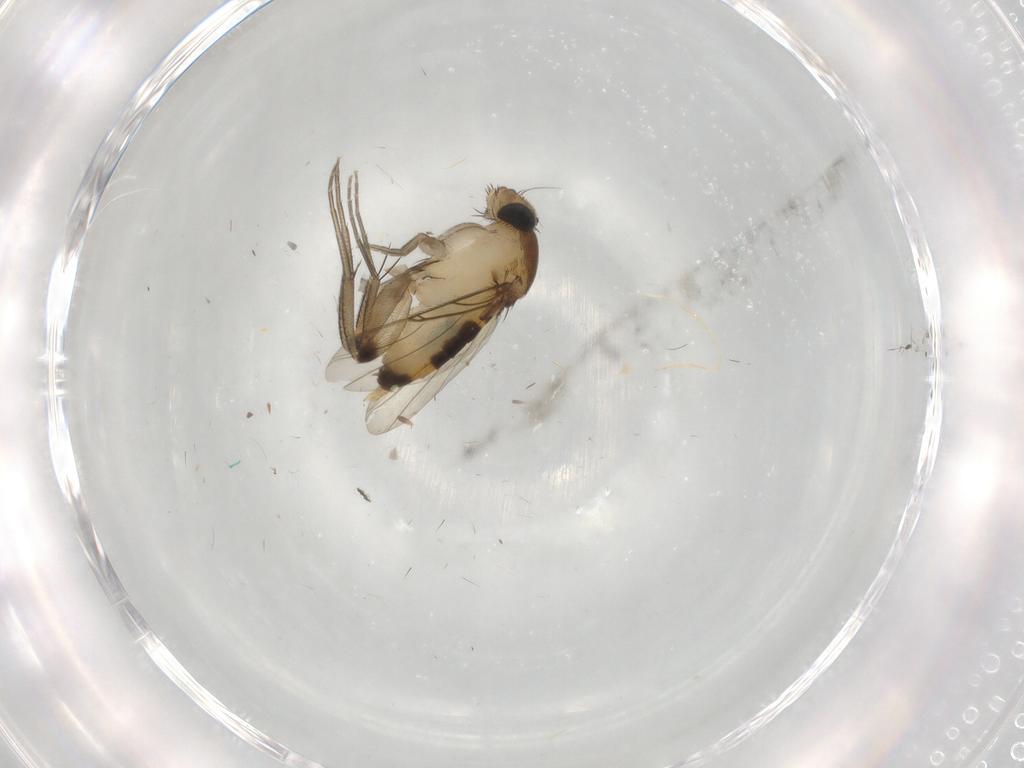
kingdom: Animalia
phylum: Arthropoda
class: Insecta
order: Diptera
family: Phoridae
